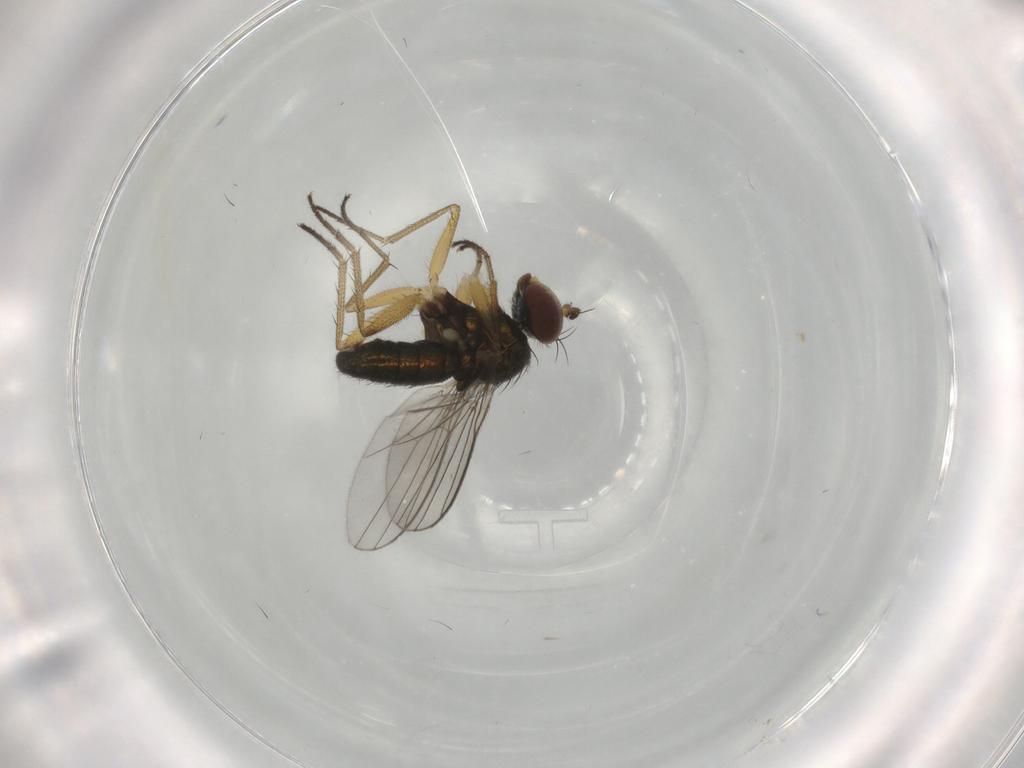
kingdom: Animalia
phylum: Arthropoda
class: Insecta
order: Diptera
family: Dolichopodidae
